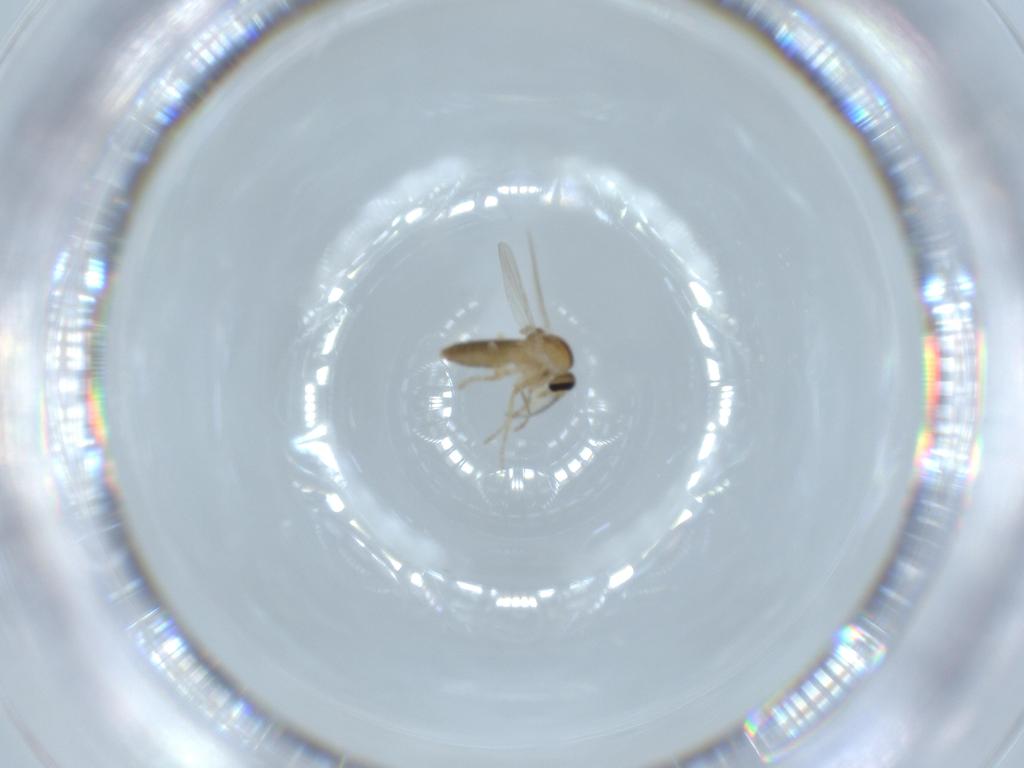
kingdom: Animalia
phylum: Arthropoda
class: Insecta
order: Diptera
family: Ceratopogonidae
